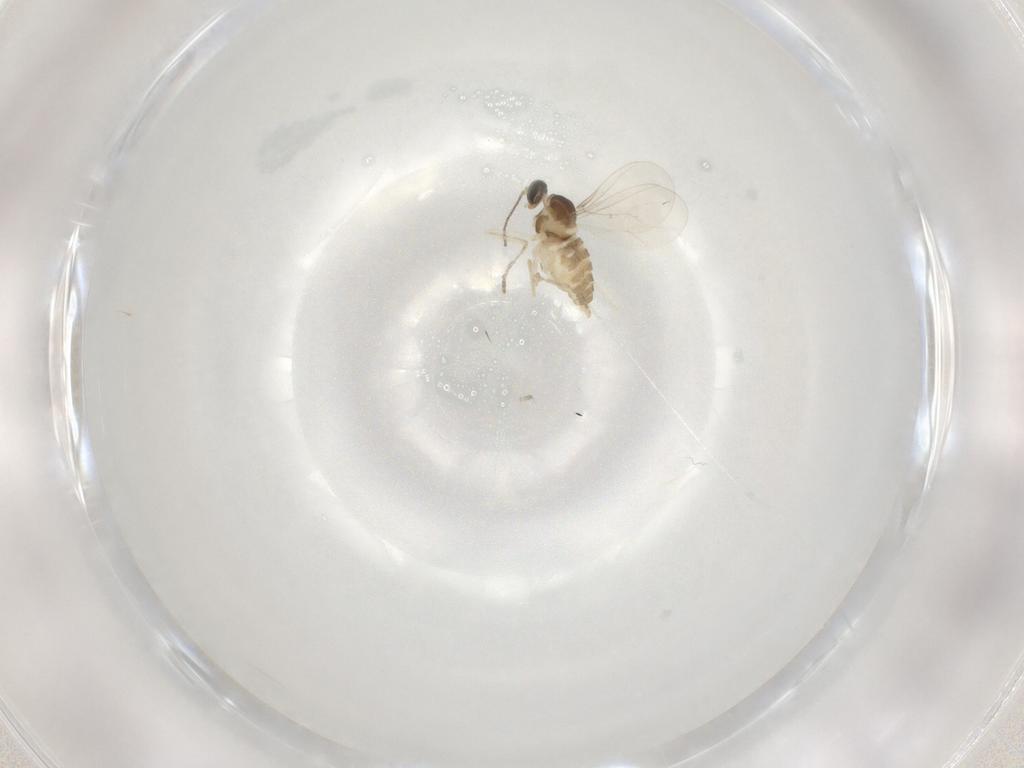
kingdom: Animalia
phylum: Arthropoda
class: Insecta
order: Diptera
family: Cecidomyiidae
